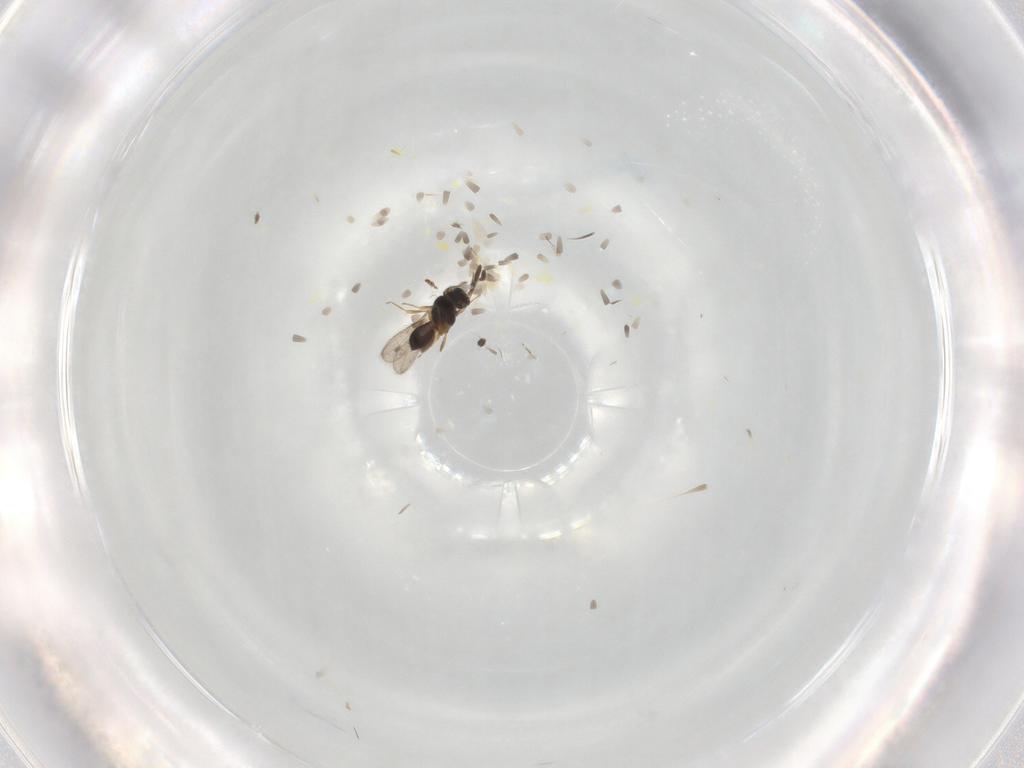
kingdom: Animalia
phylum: Arthropoda
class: Insecta
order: Hymenoptera
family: Scelionidae
